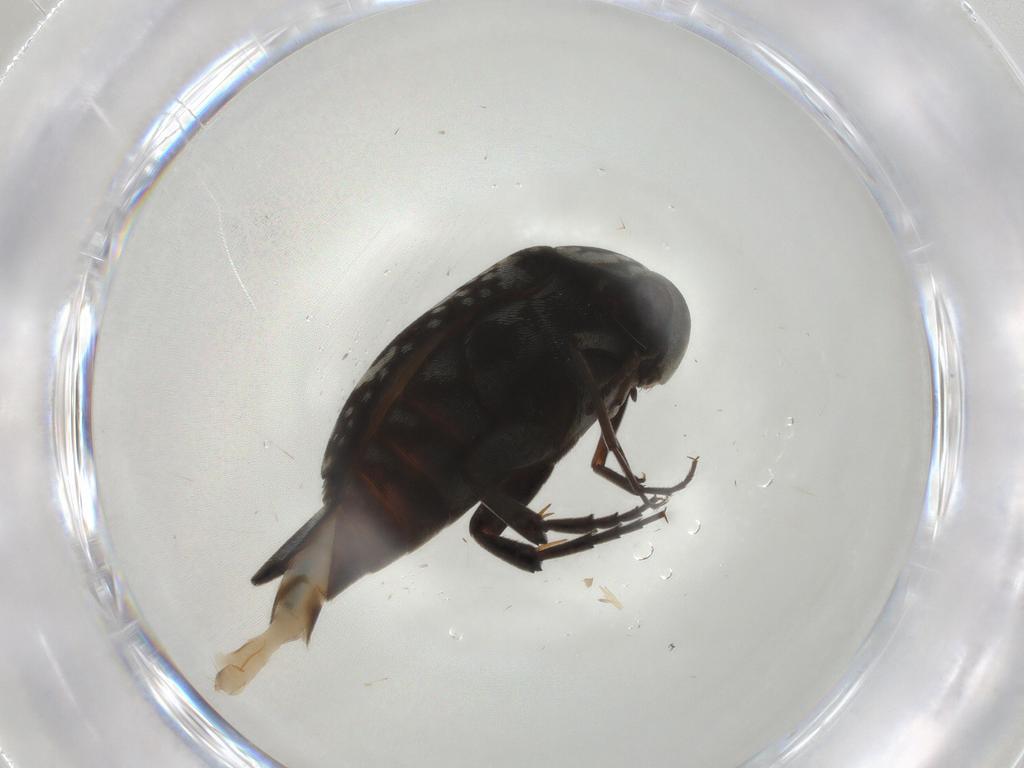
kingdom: Animalia
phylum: Arthropoda
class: Insecta
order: Coleoptera
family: Mordellidae
